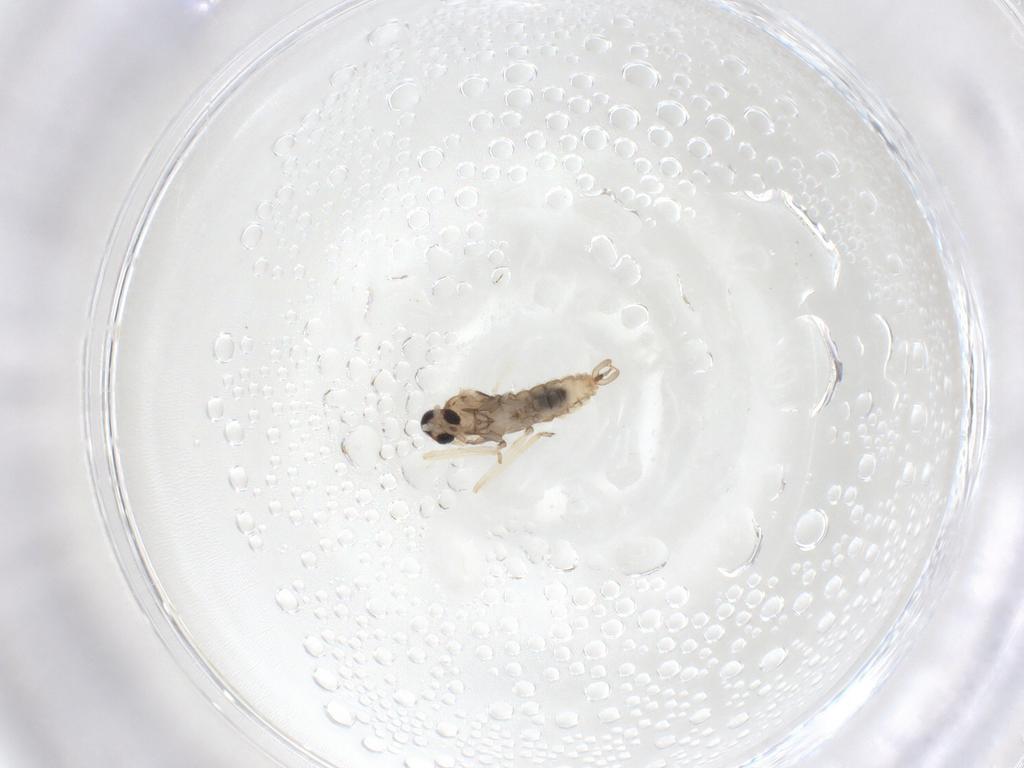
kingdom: Animalia
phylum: Arthropoda
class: Insecta
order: Diptera
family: Cecidomyiidae
